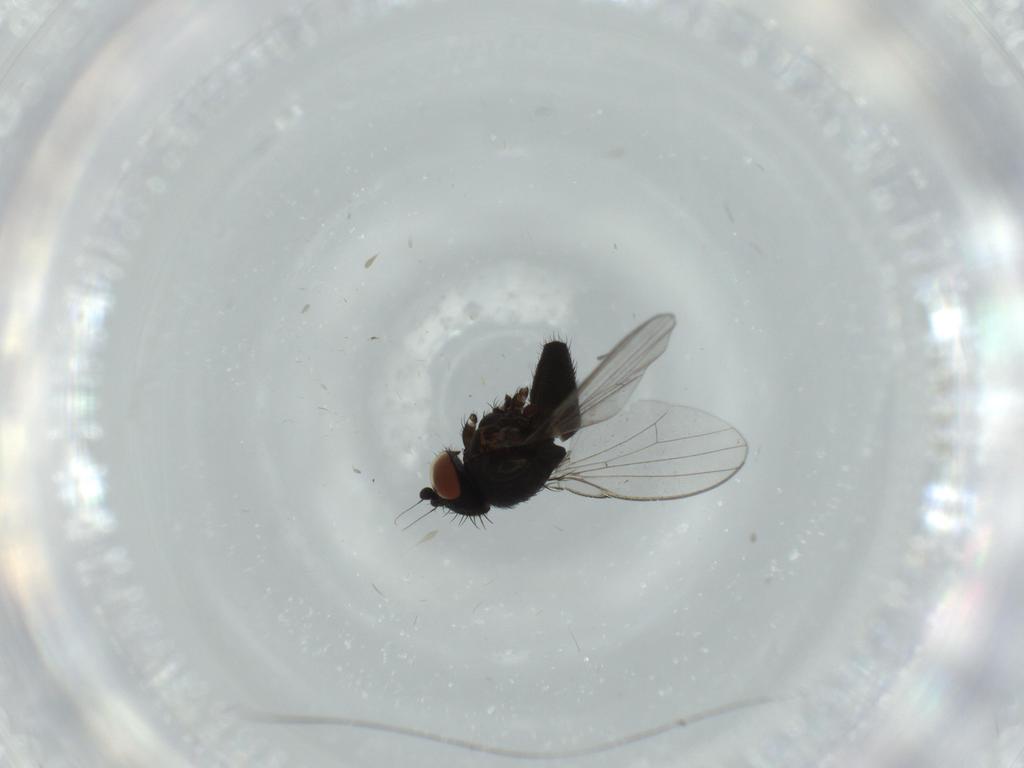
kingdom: Animalia
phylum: Arthropoda
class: Insecta
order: Diptera
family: Milichiidae
